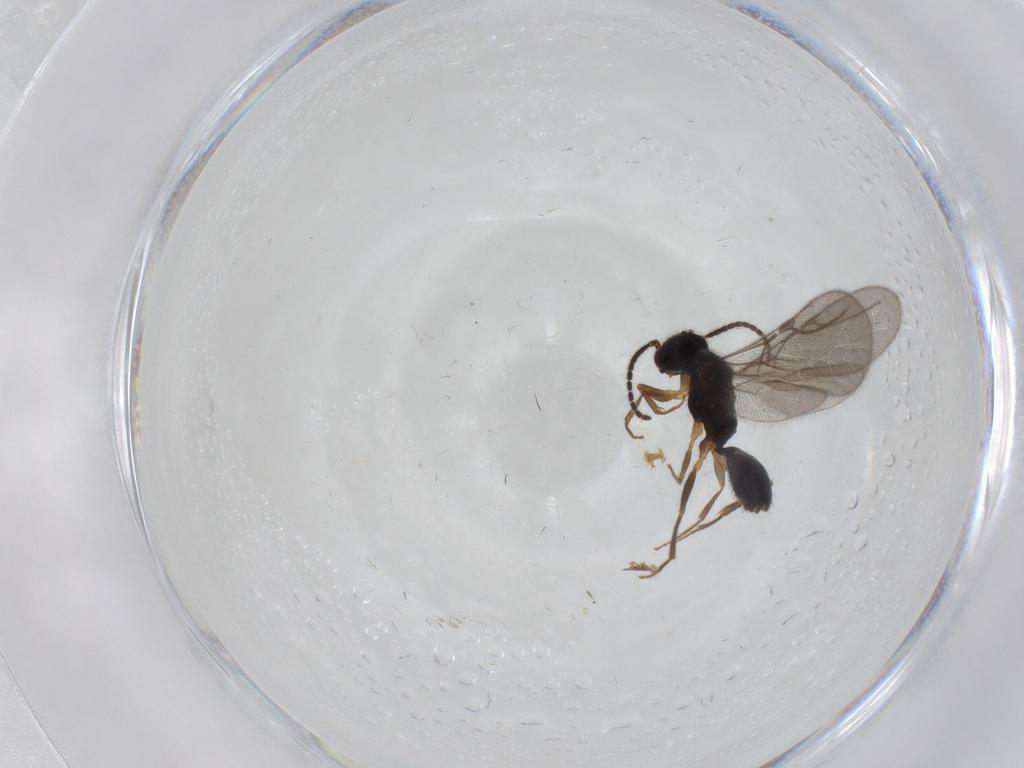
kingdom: Animalia
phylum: Arthropoda
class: Insecta
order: Hymenoptera
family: Bethylidae
